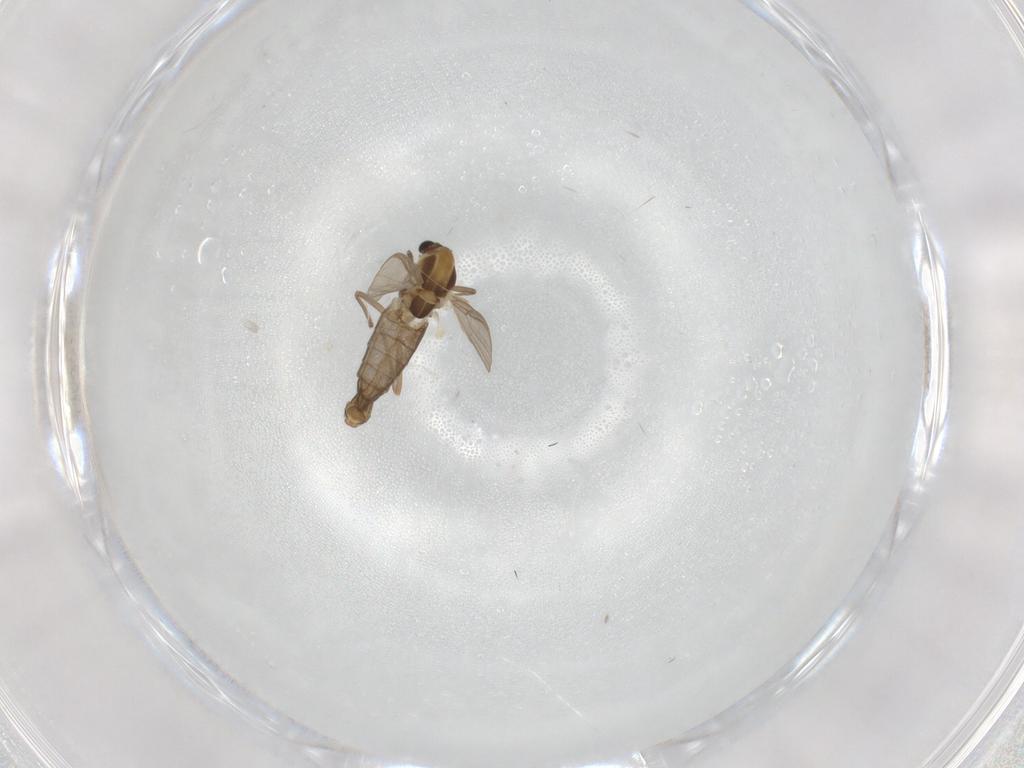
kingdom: Animalia
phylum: Arthropoda
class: Insecta
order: Diptera
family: Chironomidae
